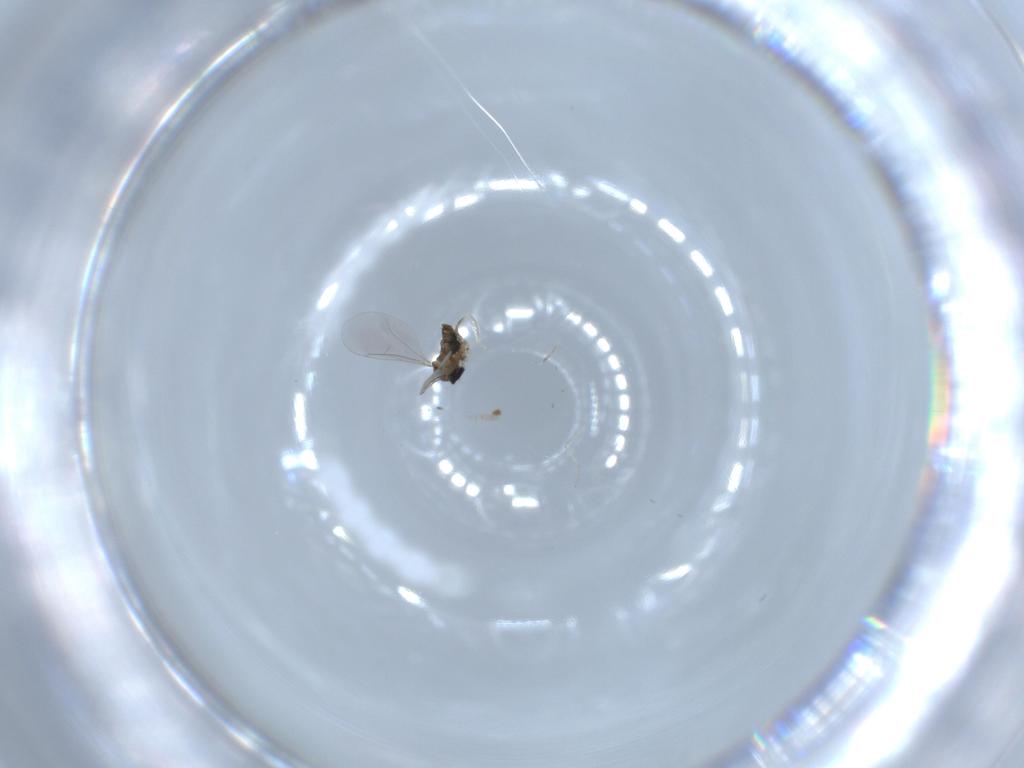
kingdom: Animalia
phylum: Arthropoda
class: Insecta
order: Diptera
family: Cecidomyiidae
